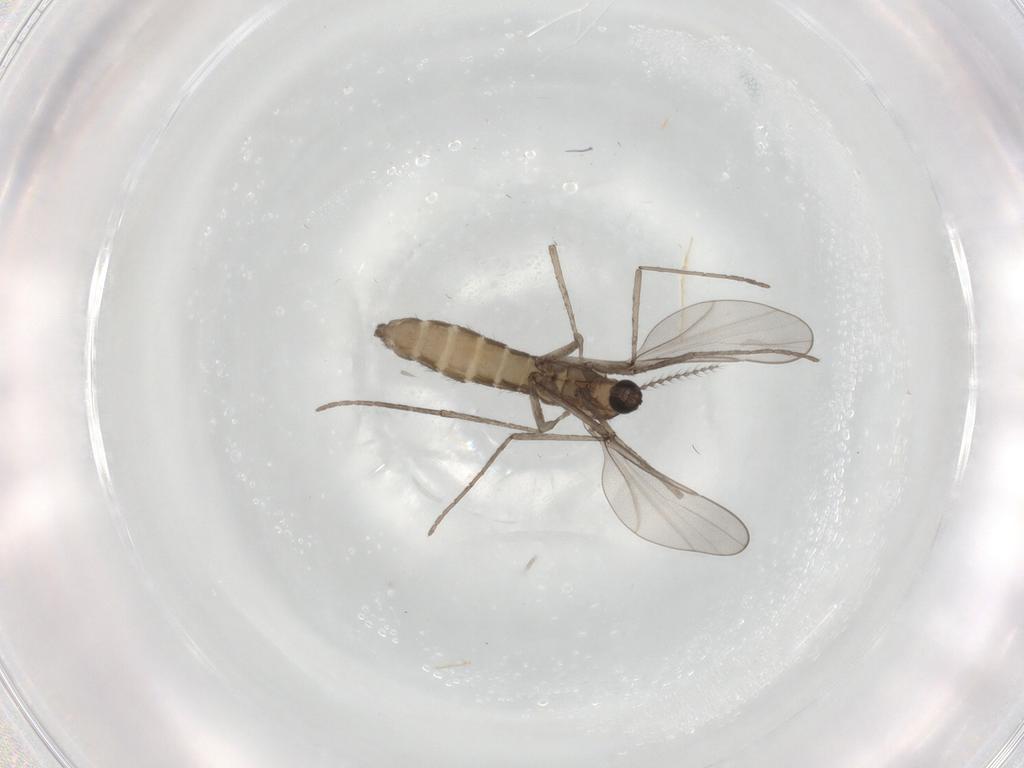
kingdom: Animalia
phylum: Arthropoda
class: Insecta
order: Diptera
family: Cecidomyiidae
